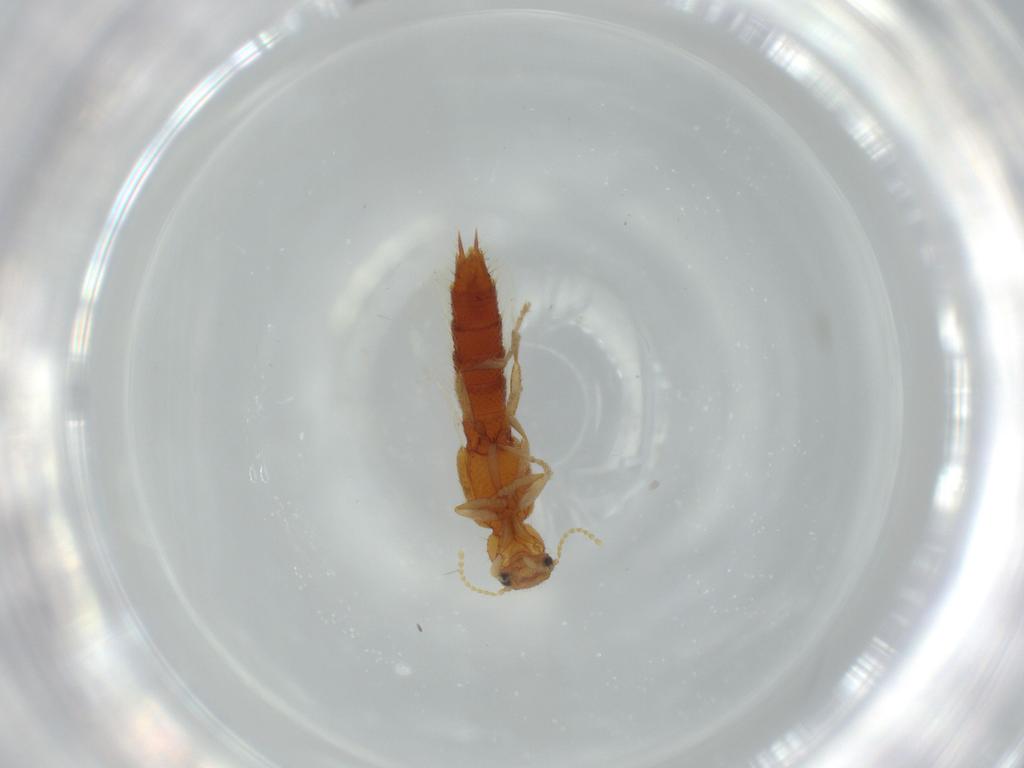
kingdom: Animalia
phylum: Arthropoda
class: Insecta
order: Coleoptera
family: Staphylinidae
